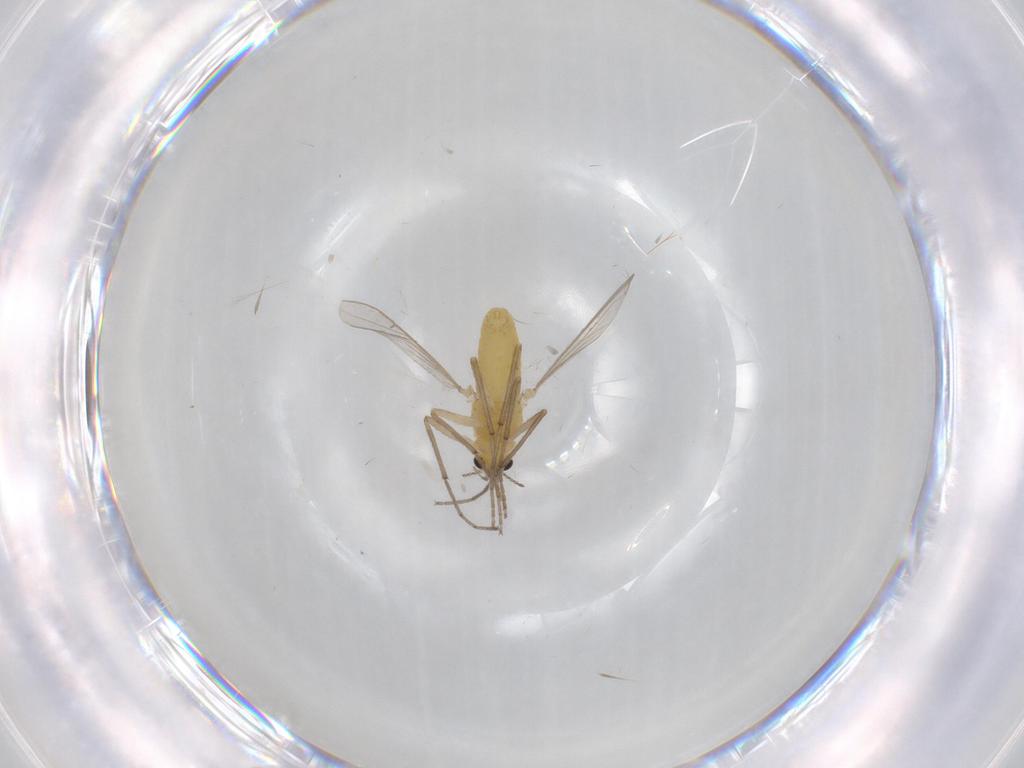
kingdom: Animalia
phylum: Arthropoda
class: Insecta
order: Diptera
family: Chironomidae
